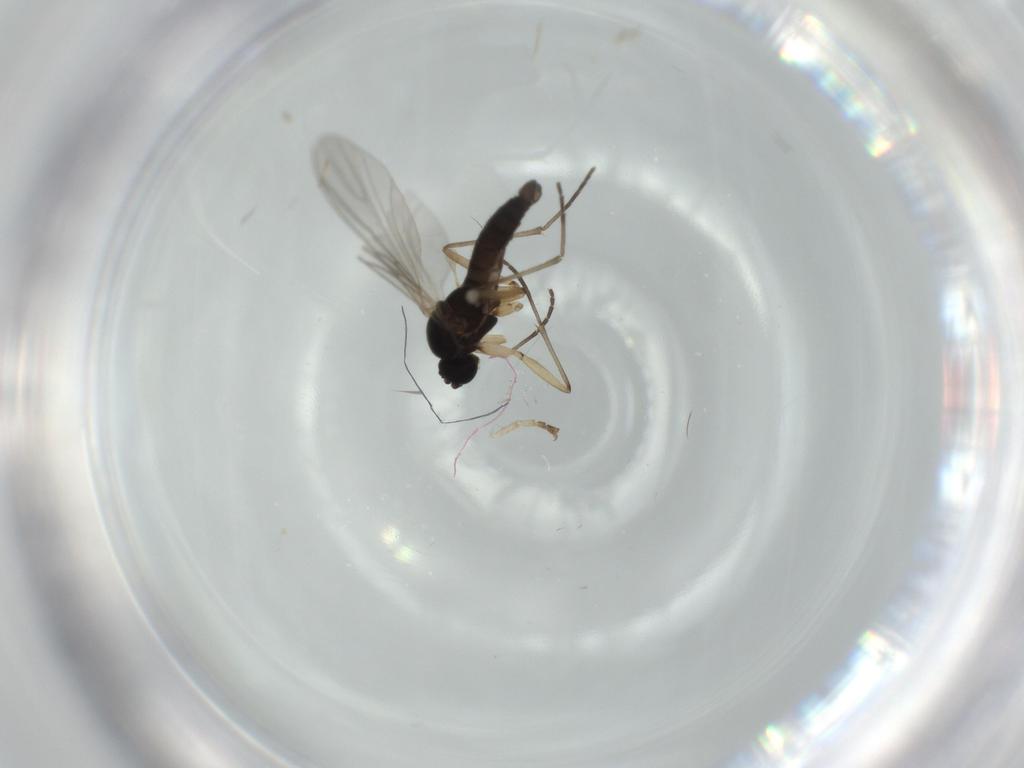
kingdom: Animalia
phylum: Arthropoda
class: Insecta
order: Diptera
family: Sciaridae
